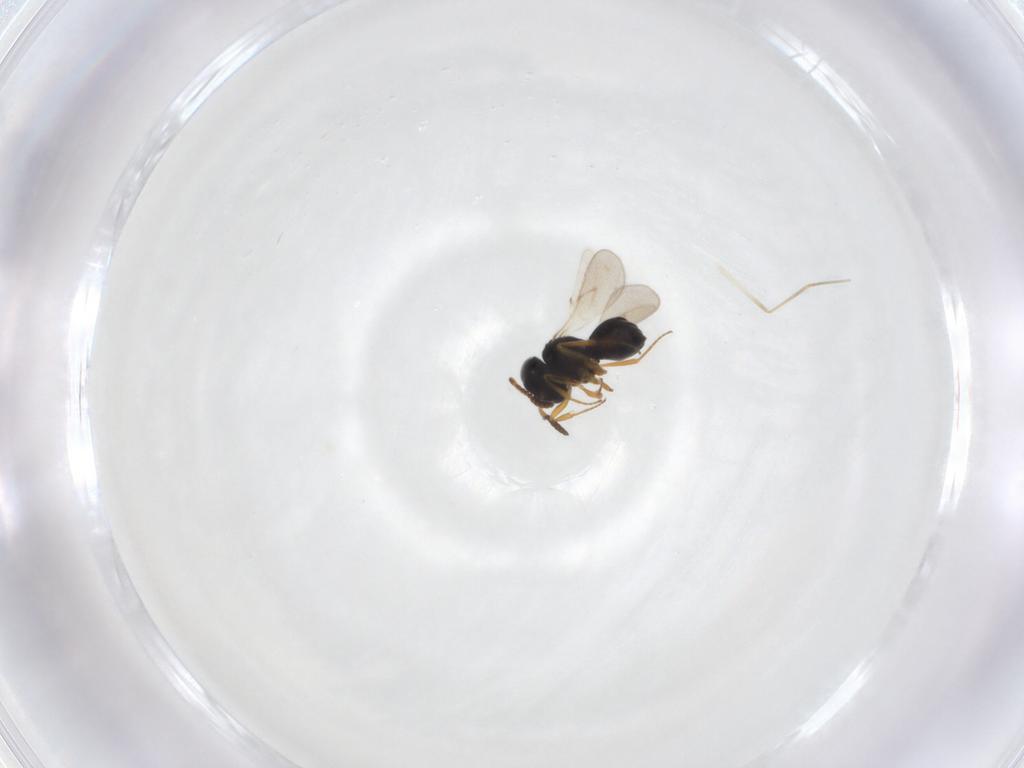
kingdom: Animalia
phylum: Arthropoda
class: Insecta
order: Hymenoptera
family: Scelionidae
